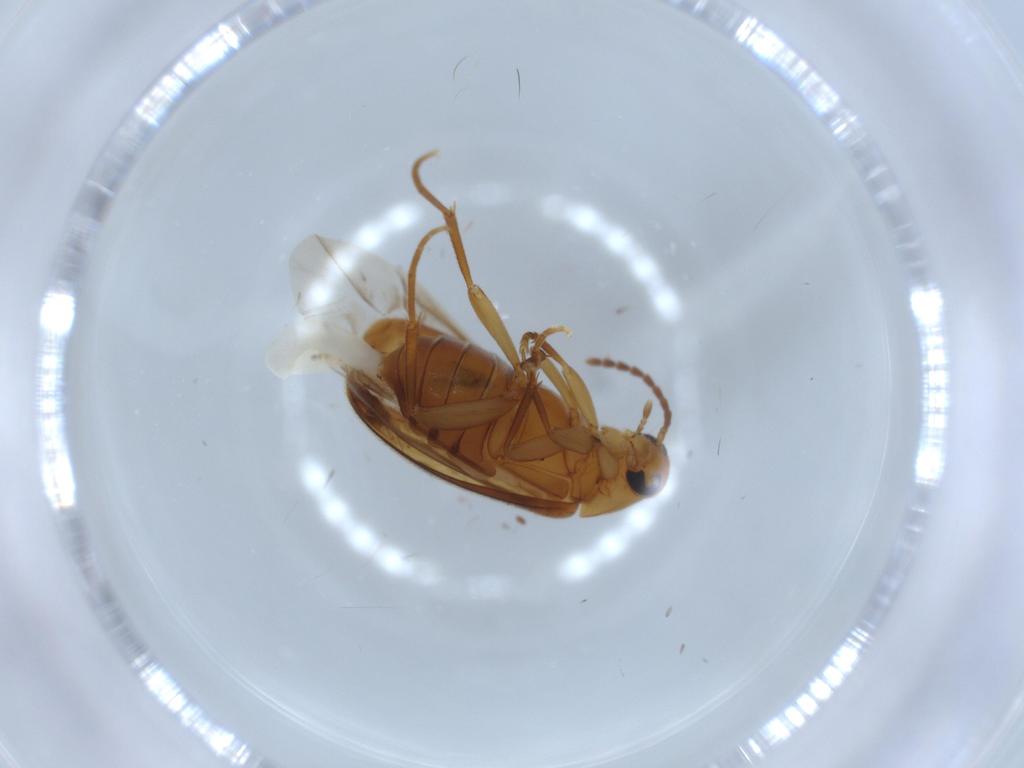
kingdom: Animalia
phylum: Arthropoda
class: Insecta
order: Coleoptera
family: Scraptiidae
